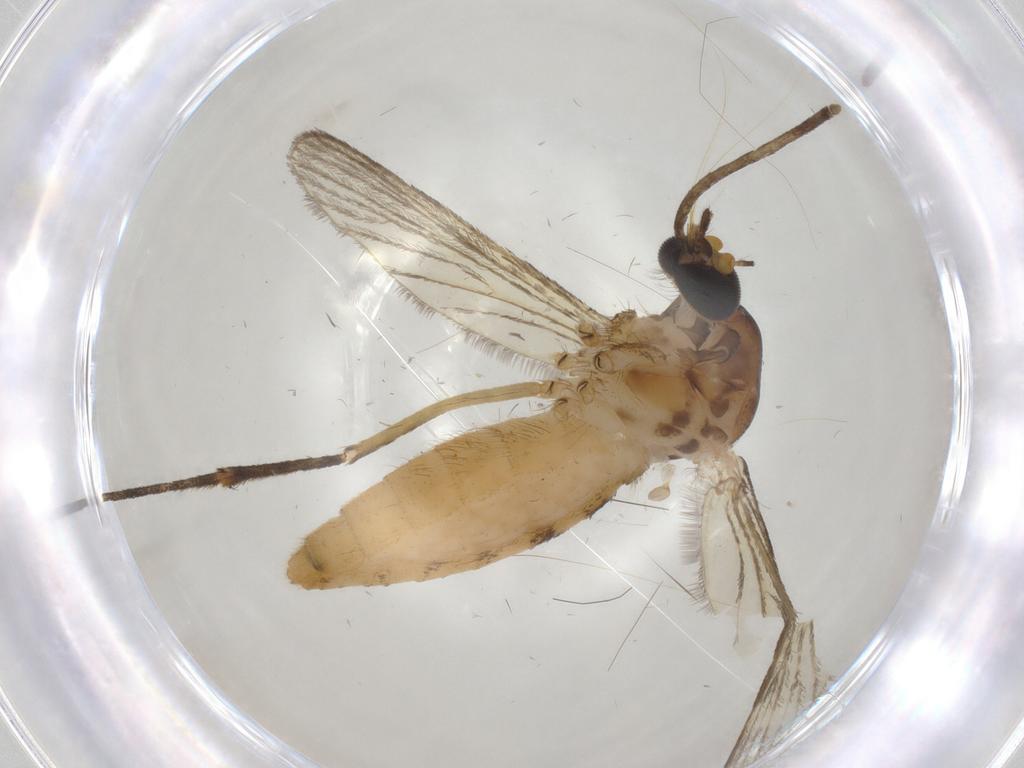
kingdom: Animalia
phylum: Arthropoda
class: Insecta
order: Diptera
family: Culicidae
